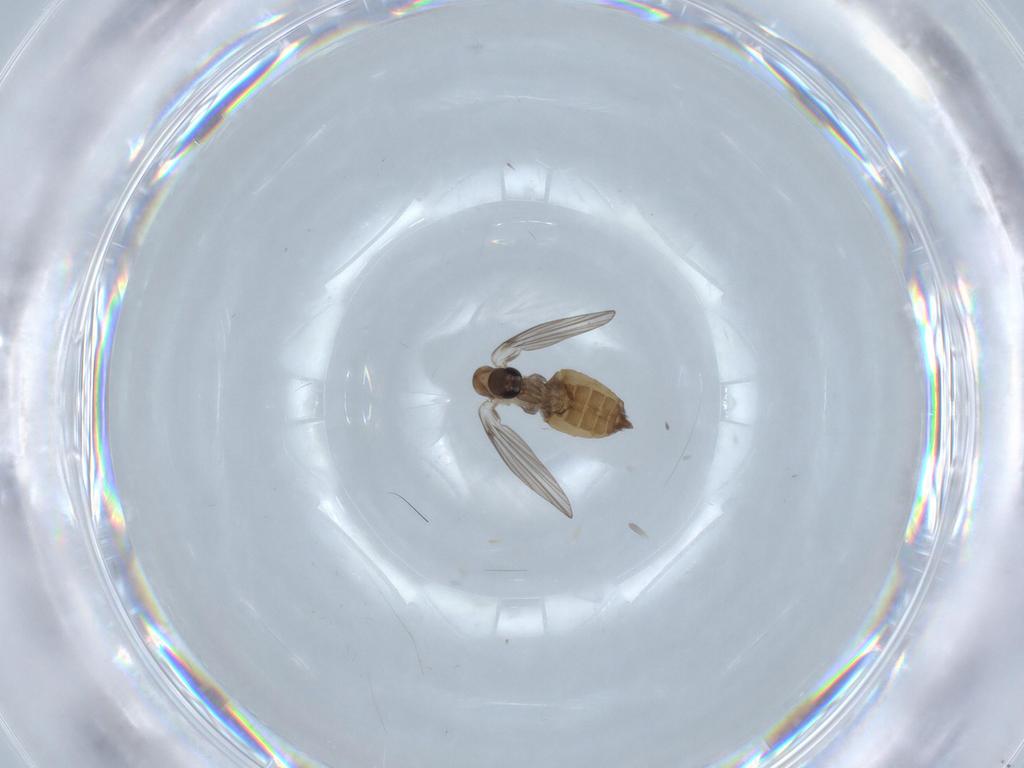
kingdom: Animalia
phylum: Arthropoda
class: Insecta
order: Diptera
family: Psychodidae
